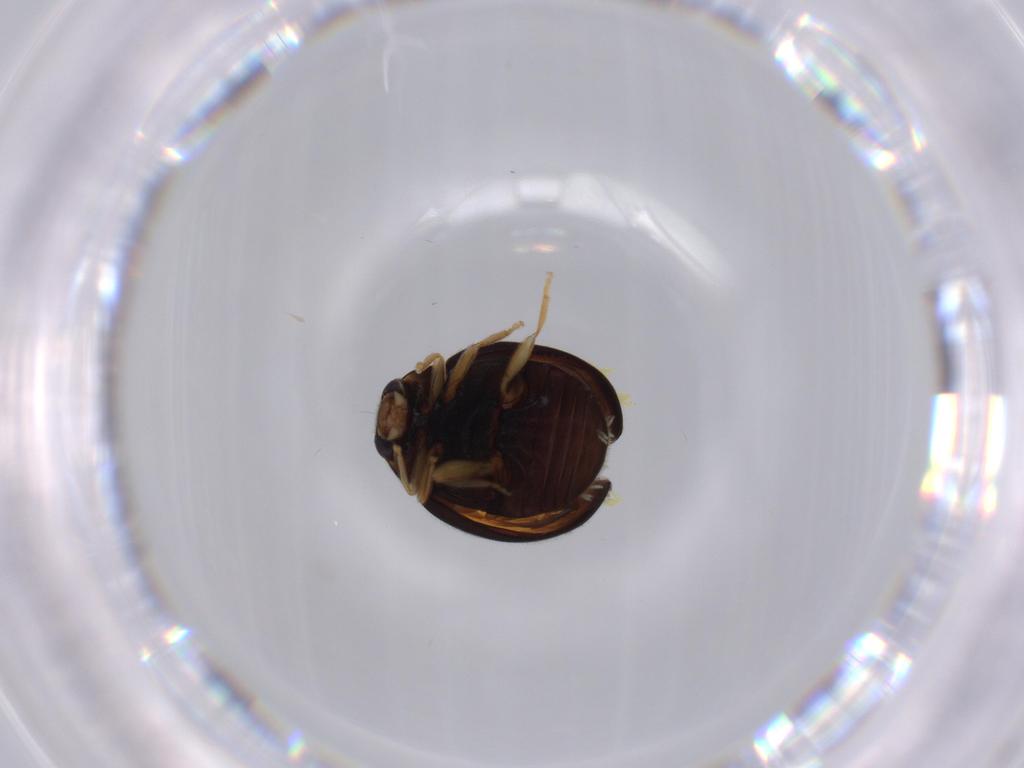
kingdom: Animalia
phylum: Arthropoda
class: Insecta
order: Coleoptera
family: Coccinellidae
